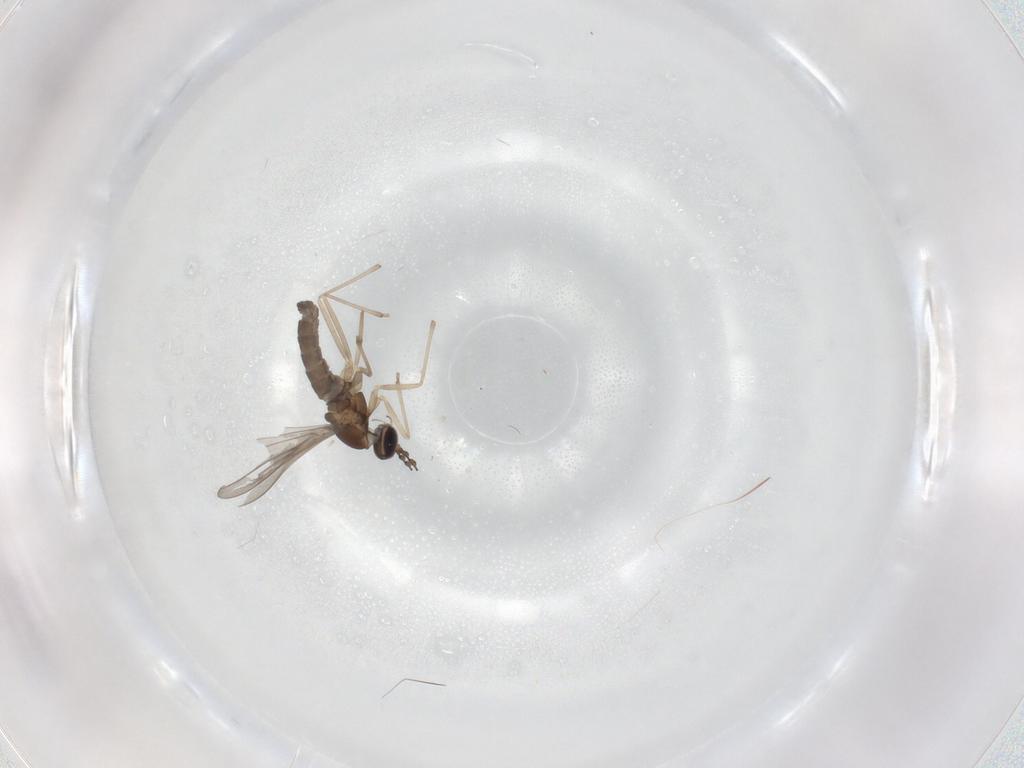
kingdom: Animalia
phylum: Arthropoda
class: Insecta
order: Diptera
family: Cecidomyiidae
